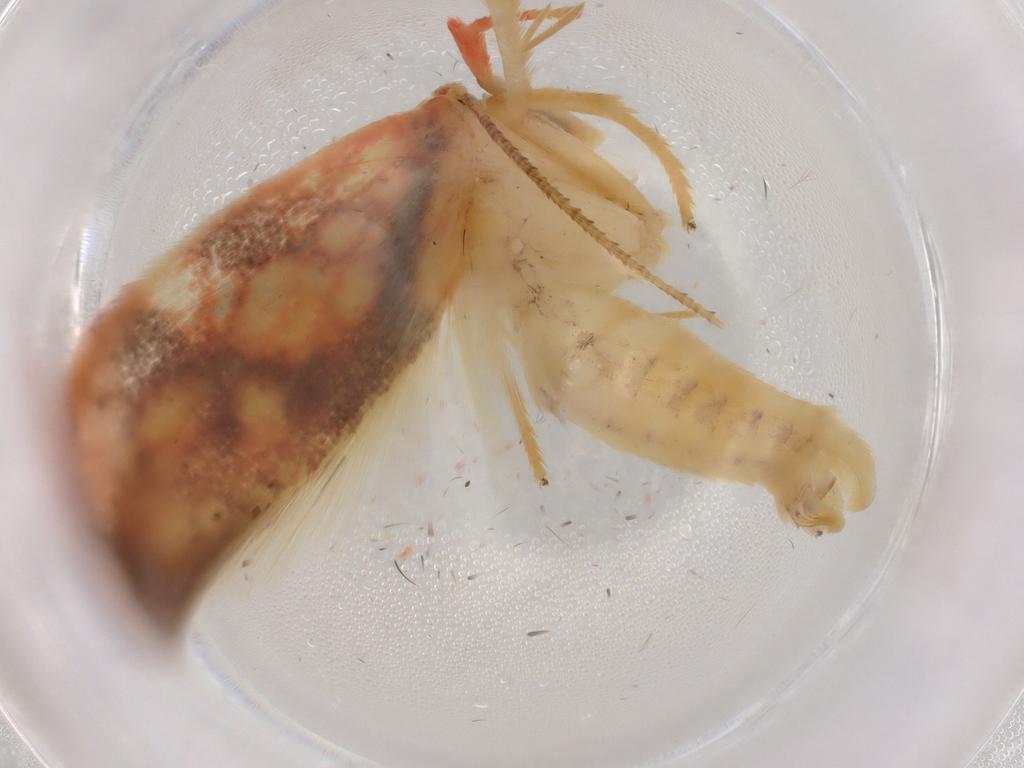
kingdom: Animalia
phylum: Arthropoda
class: Insecta
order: Lepidoptera
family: Erebidae
